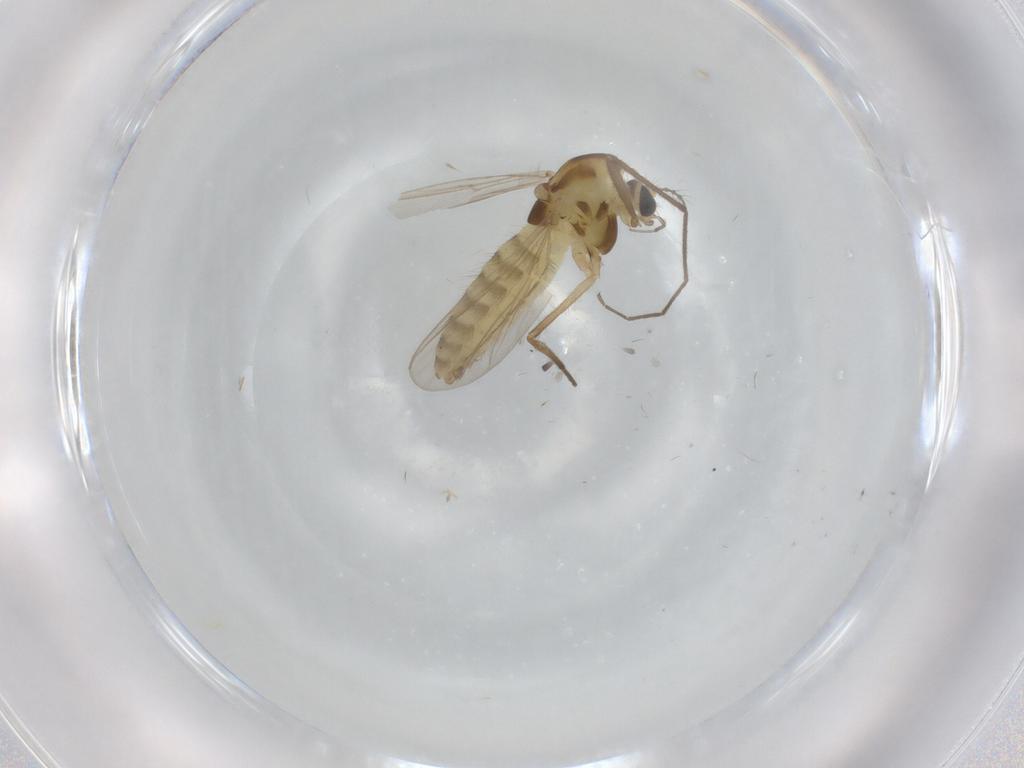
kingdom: Animalia
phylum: Arthropoda
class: Insecta
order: Diptera
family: Chironomidae
